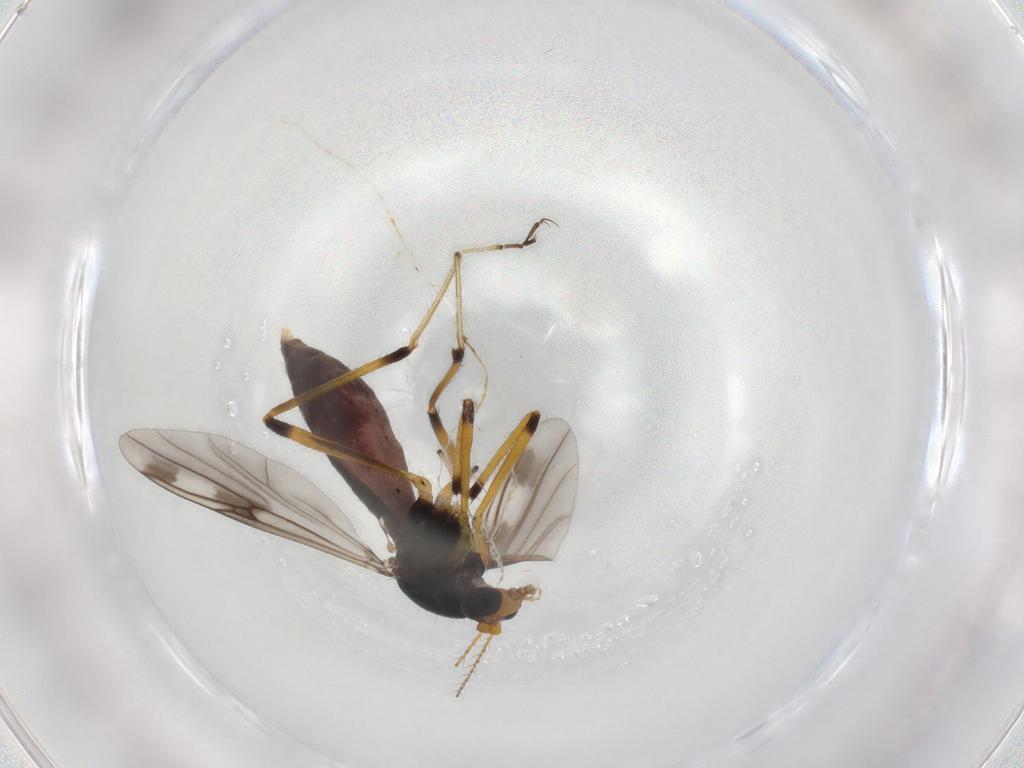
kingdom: Animalia
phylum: Arthropoda
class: Insecta
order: Diptera
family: Ceratopogonidae
